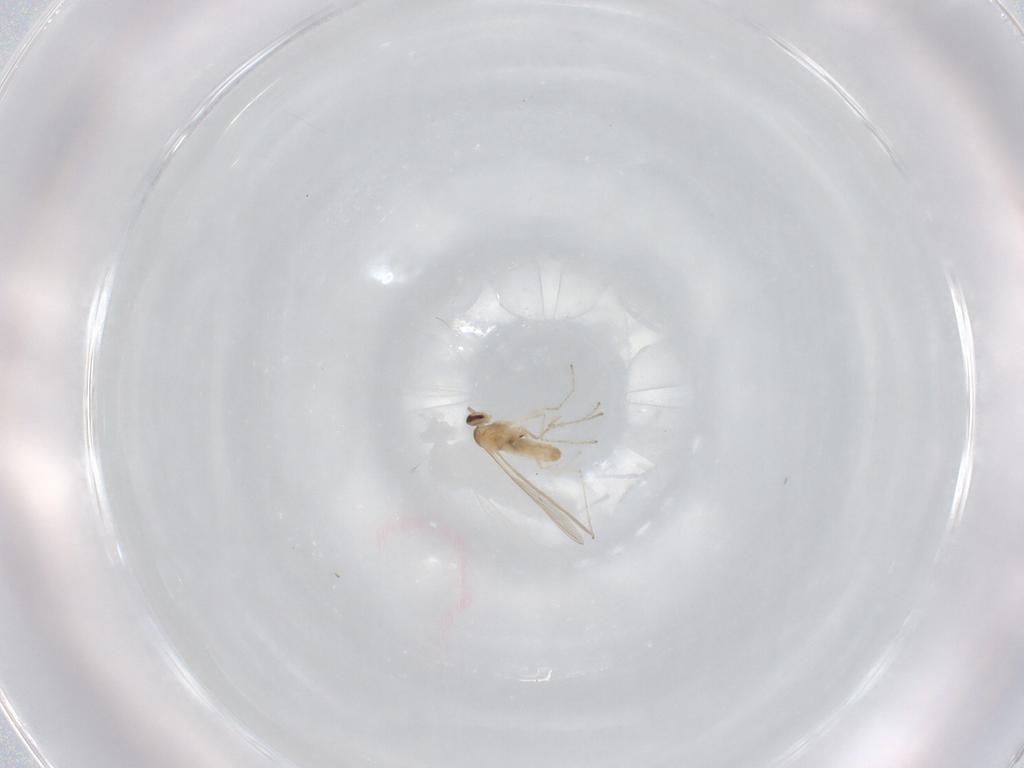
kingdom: Animalia
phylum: Arthropoda
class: Insecta
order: Diptera
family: Cecidomyiidae
